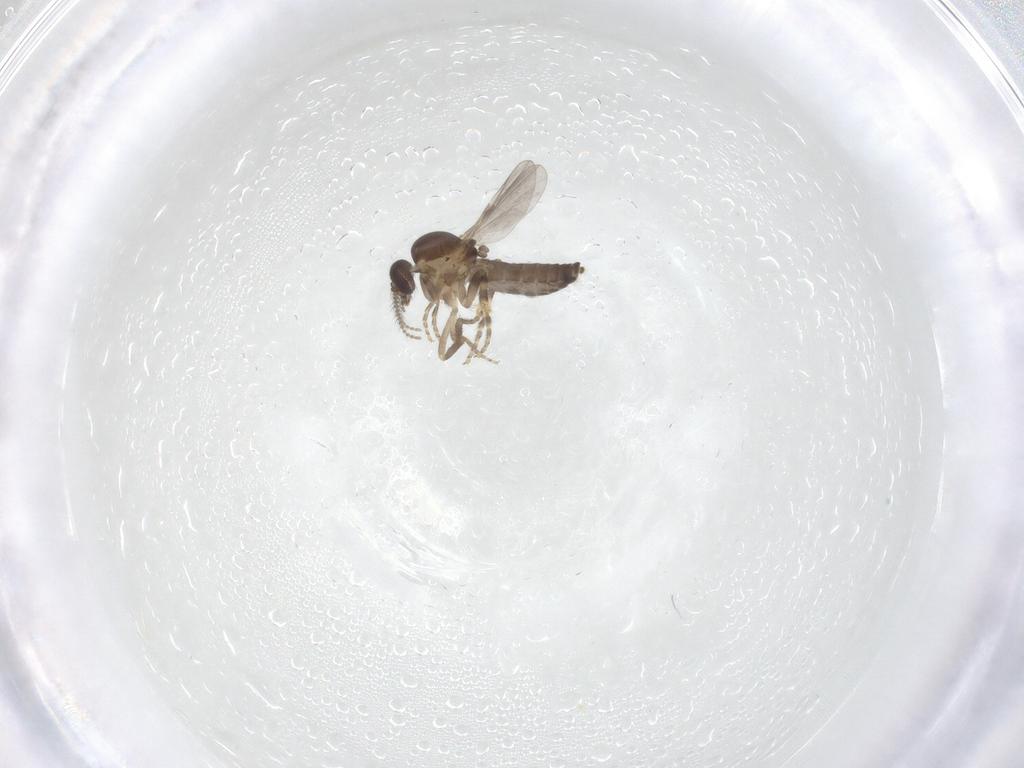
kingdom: Animalia
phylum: Arthropoda
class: Insecta
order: Diptera
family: Ceratopogonidae
